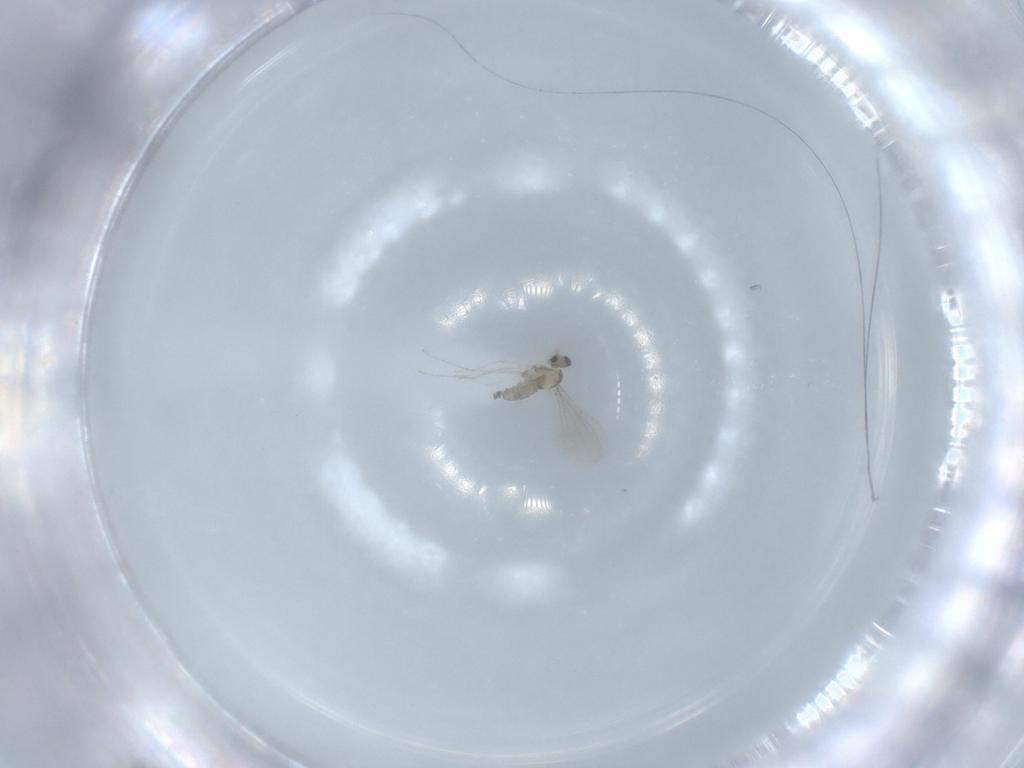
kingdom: Animalia
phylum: Arthropoda
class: Insecta
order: Diptera
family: Cecidomyiidae
